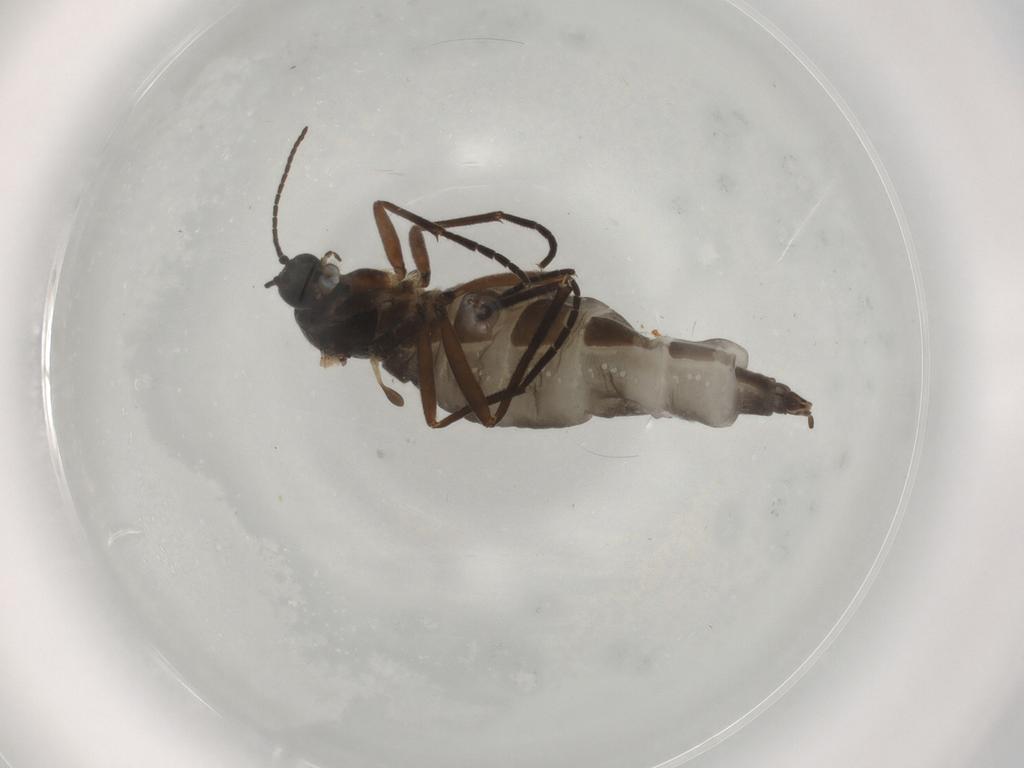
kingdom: Animalia
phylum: Arthropoda
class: Insecta
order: Diptera
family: Sciaridae
